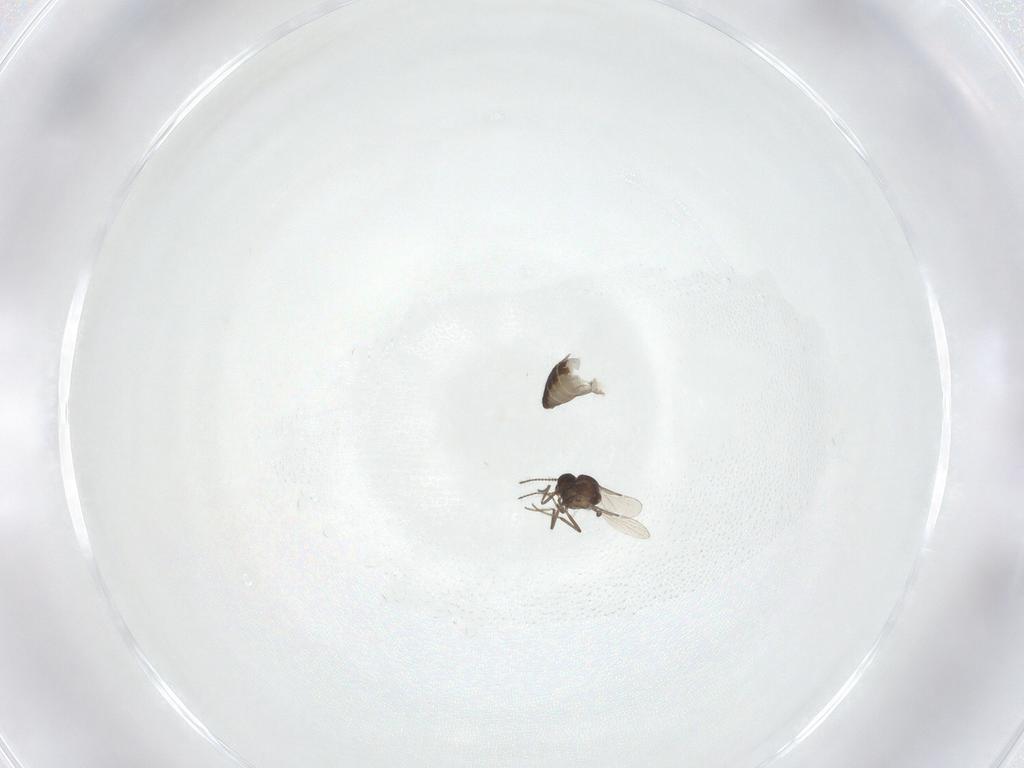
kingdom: Animalia
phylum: Arthropoda
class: Insecta
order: Diptera
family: Ceratopogonidae
